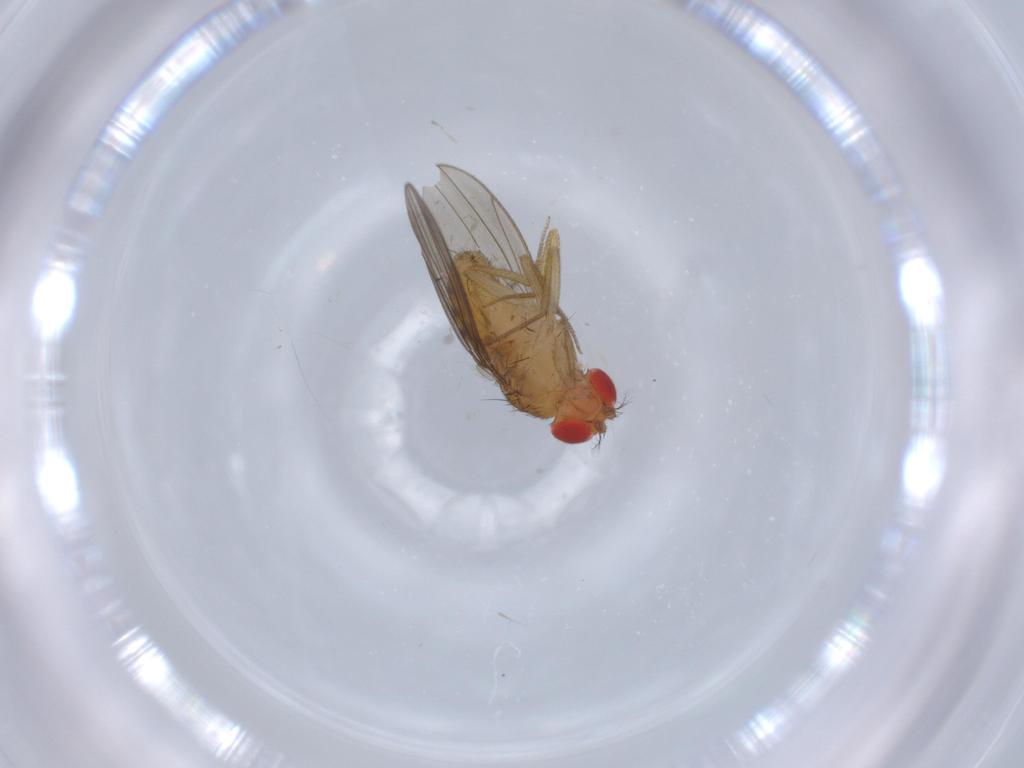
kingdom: Animalia
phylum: Arthropoda
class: Insecta
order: Diptera
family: Drosophilidae
